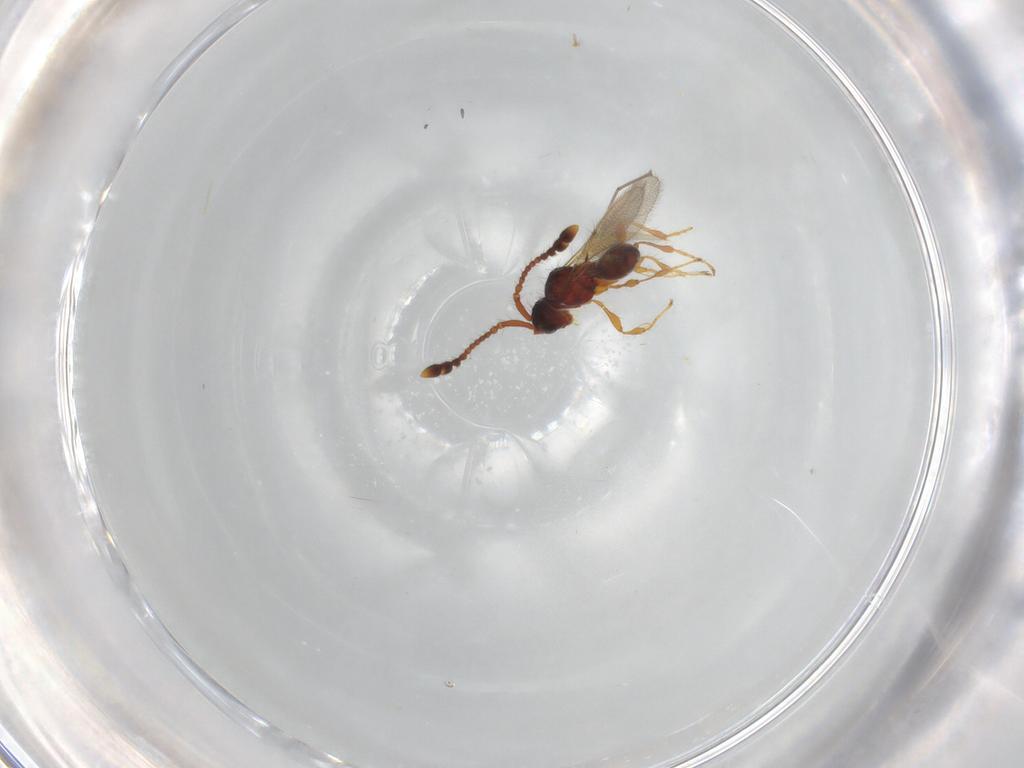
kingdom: Animalia
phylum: Arthropoda
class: Insecta
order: Hymenoptera
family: Diapriidae
